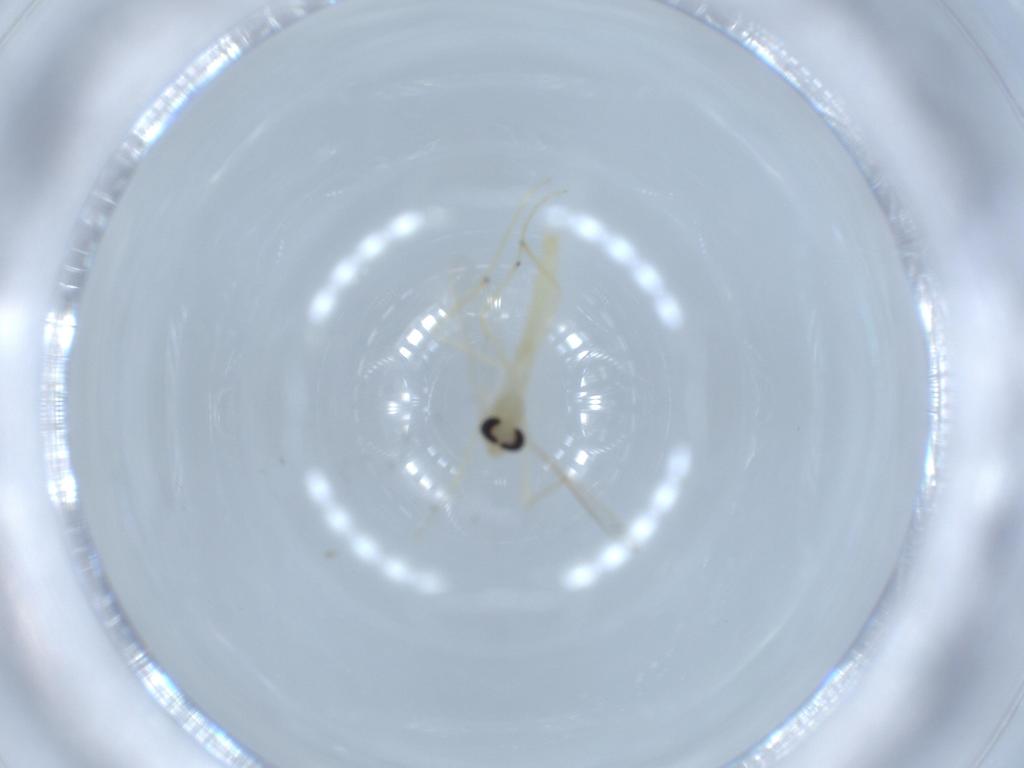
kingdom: Animalia
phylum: Arthropoda
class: Insecta
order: Diptera
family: Chironomidae
